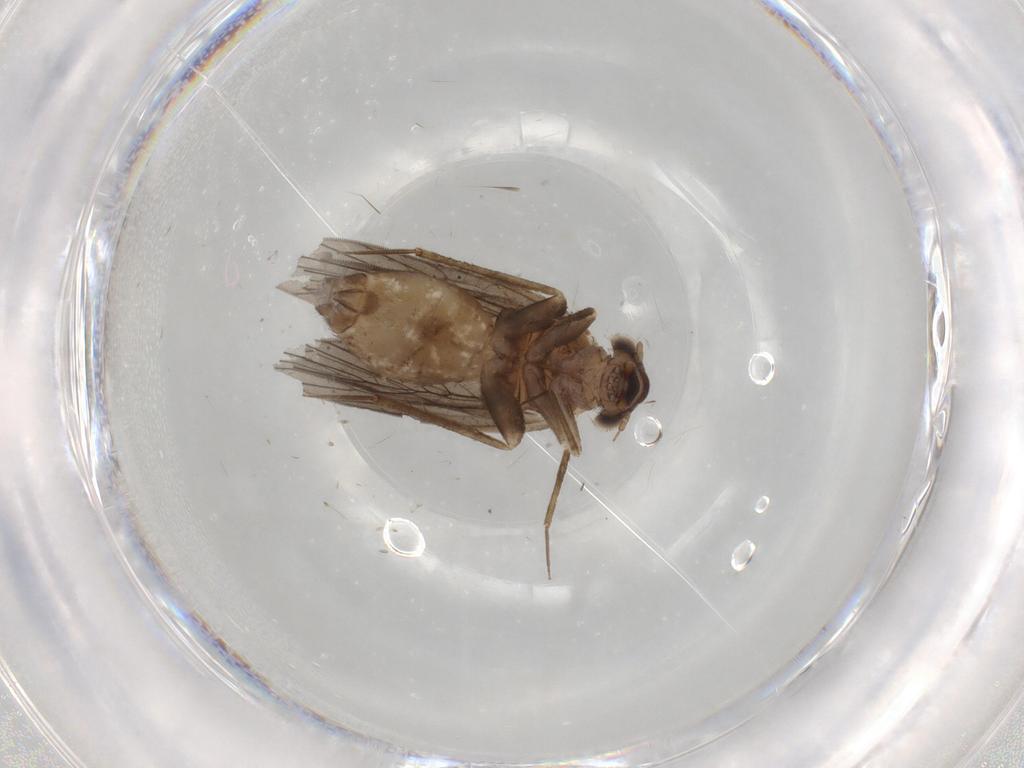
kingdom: Animalia
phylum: Arthropoda
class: Insecta
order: Psocodea
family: Lepidopsocidae
